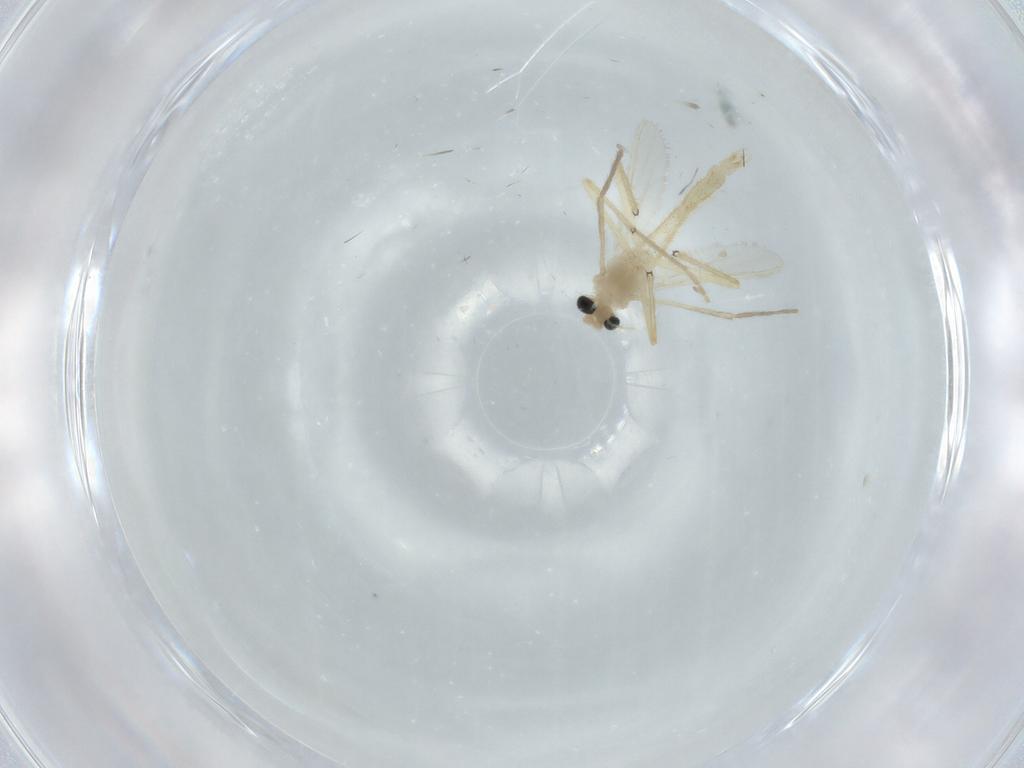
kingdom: Animalia
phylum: Arthropoda
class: Insecta
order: Diptera
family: Chironomidae
